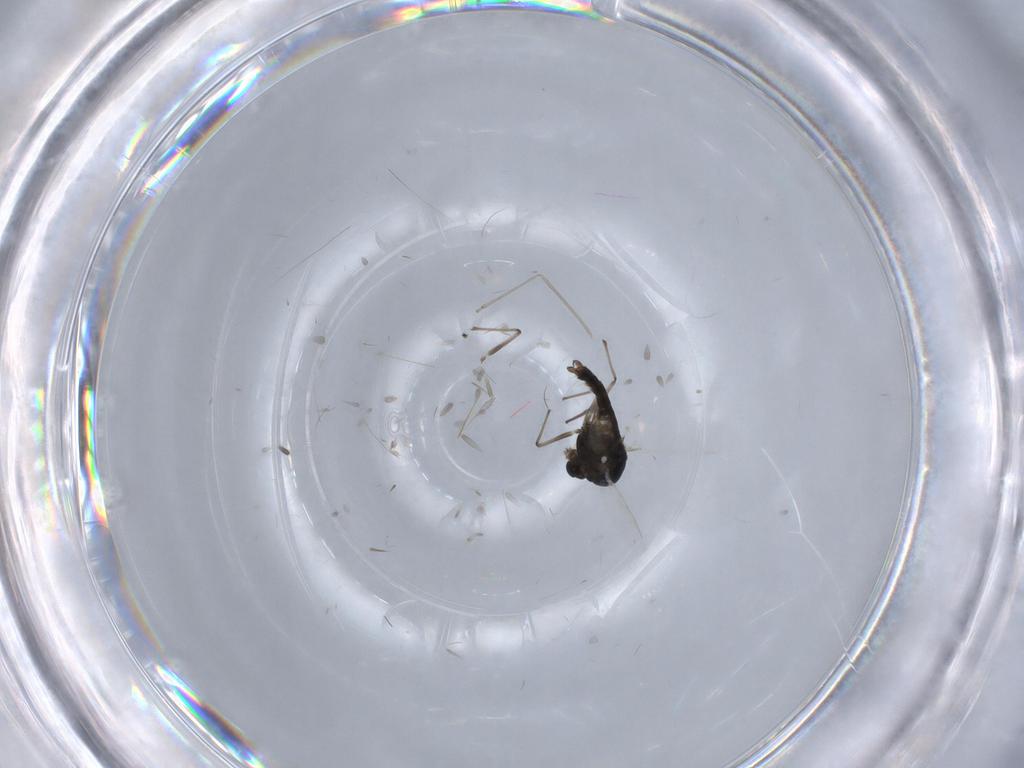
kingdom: Animalia
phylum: Arthropoda
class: Insecta
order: Diptera
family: Chironomidae
